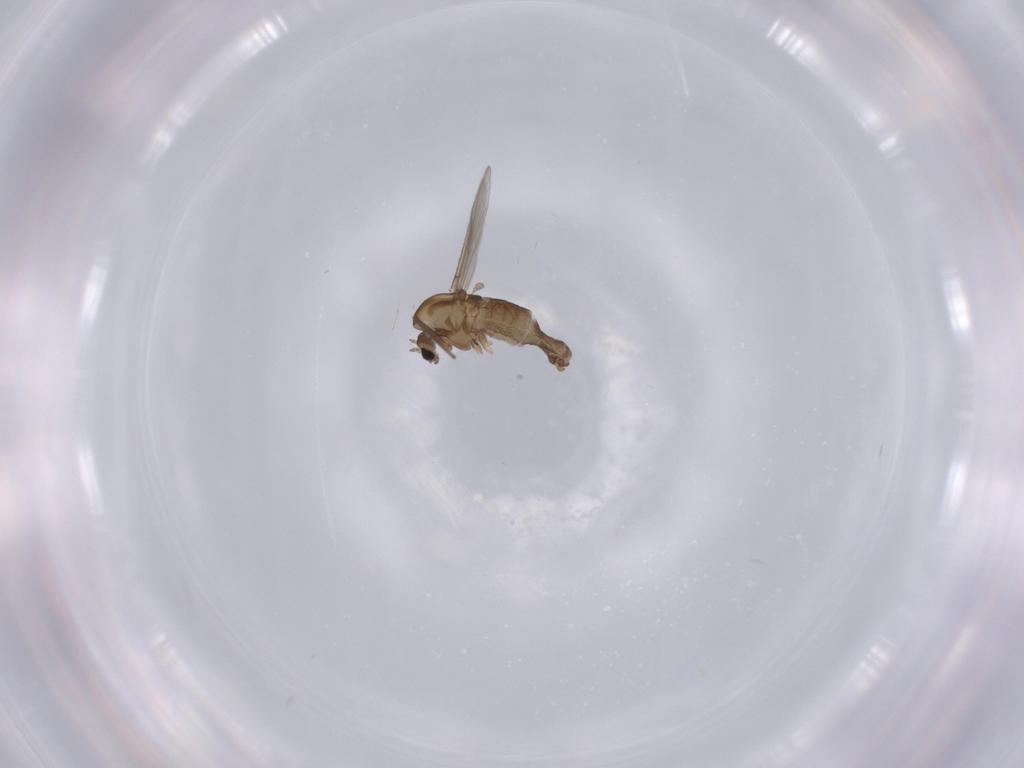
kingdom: Animalia
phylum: Arthropoda
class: Insecta
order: Diptera
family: Chironomidae
